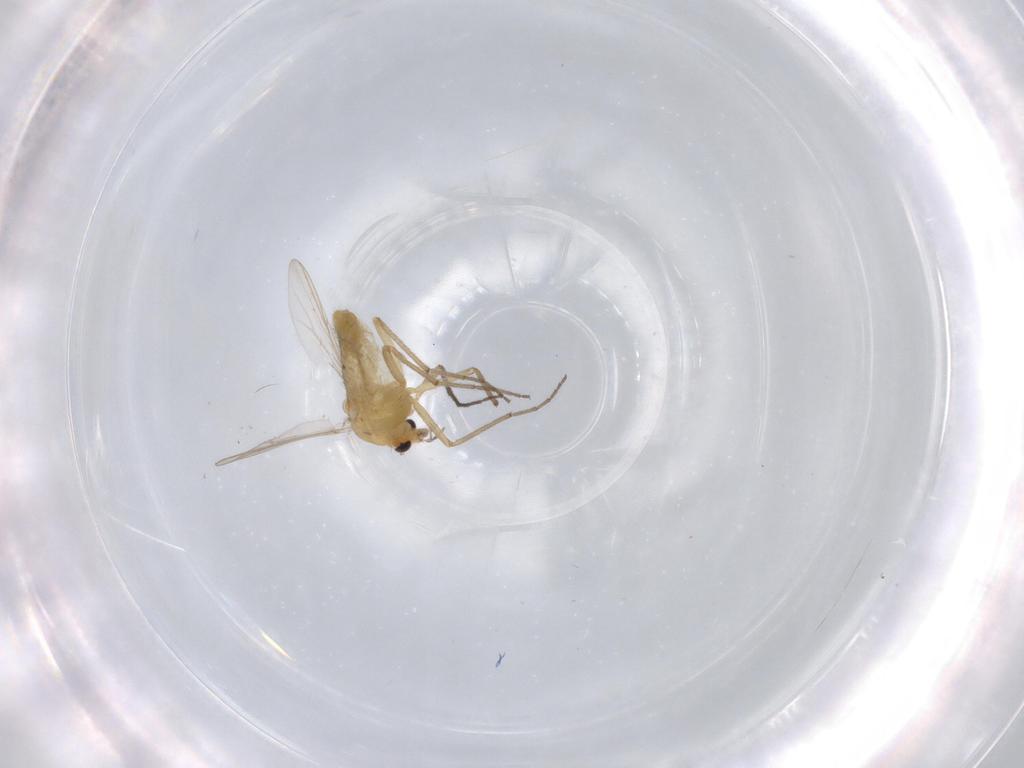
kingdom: Animalia
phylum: Arthropoda
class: Insecta
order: Diptera
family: Chironomidae
